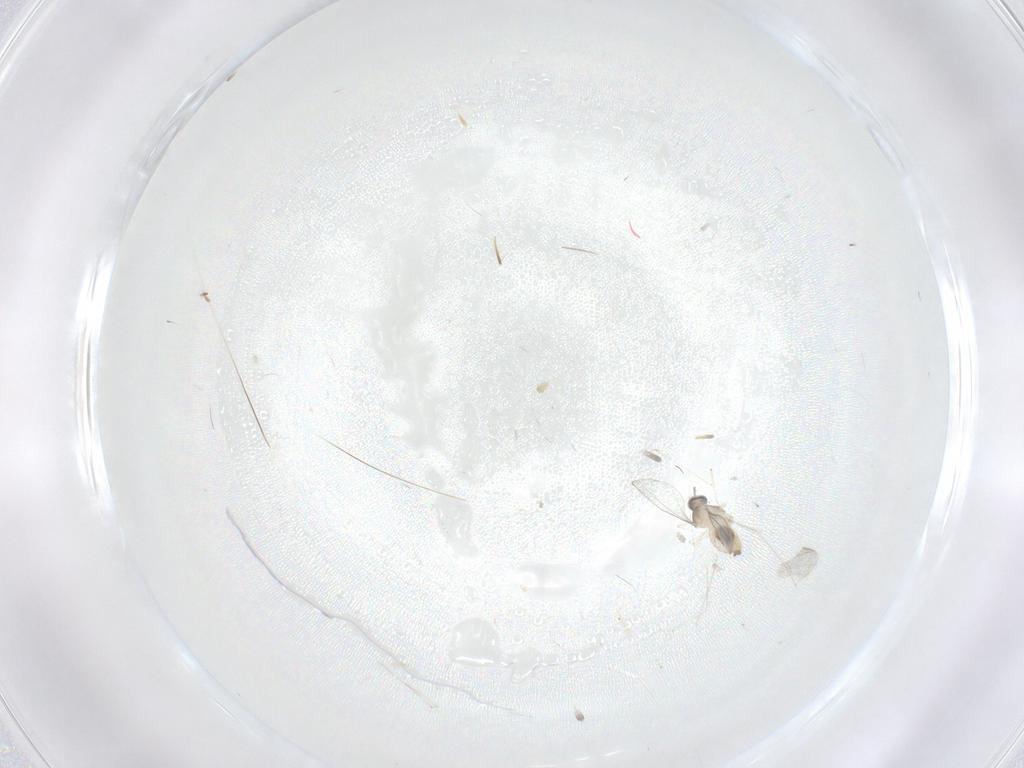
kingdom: Animalia
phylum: Arthropoda
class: Insecta
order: Diptera
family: Cecidomyiidae
